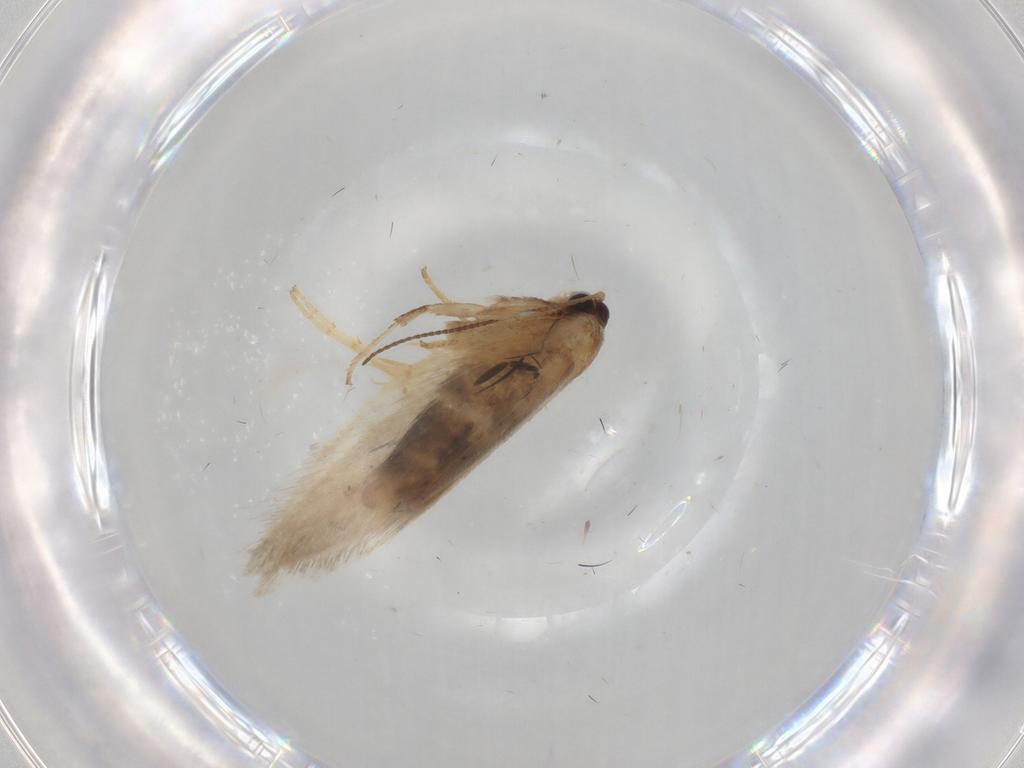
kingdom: Animalia
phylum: Arthropoda
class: Insecta
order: Lepidoptera
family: Nepticulidae
